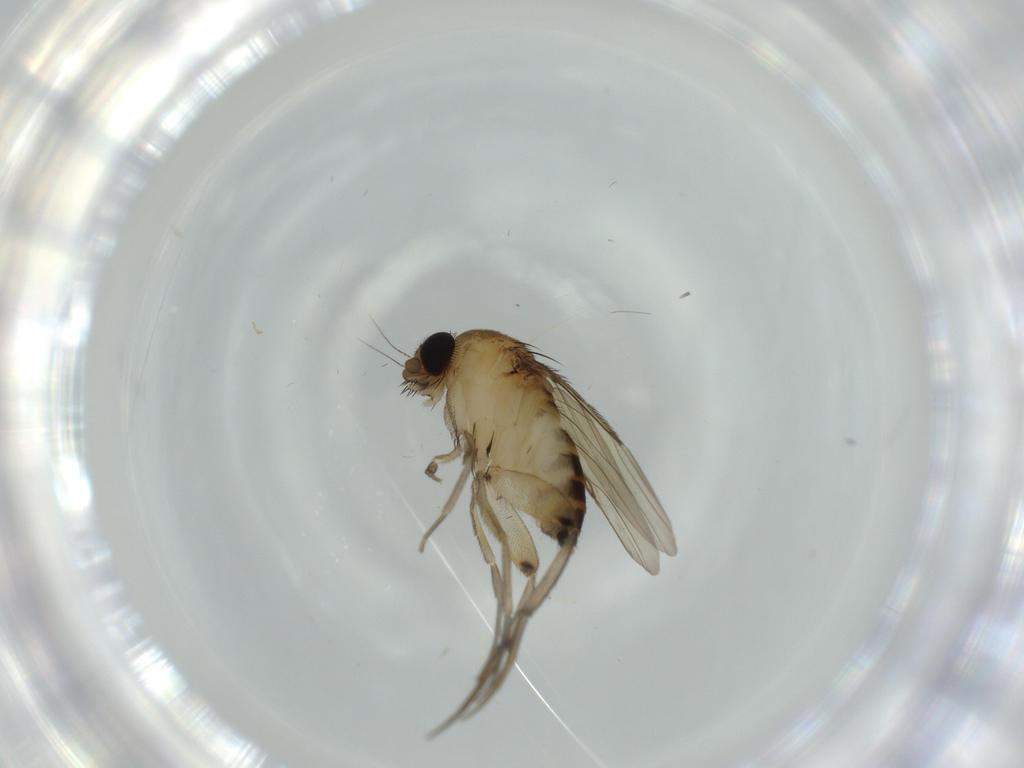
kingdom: Animalia
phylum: Arthropoda
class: Insecta
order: Diptera
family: Phoridae
